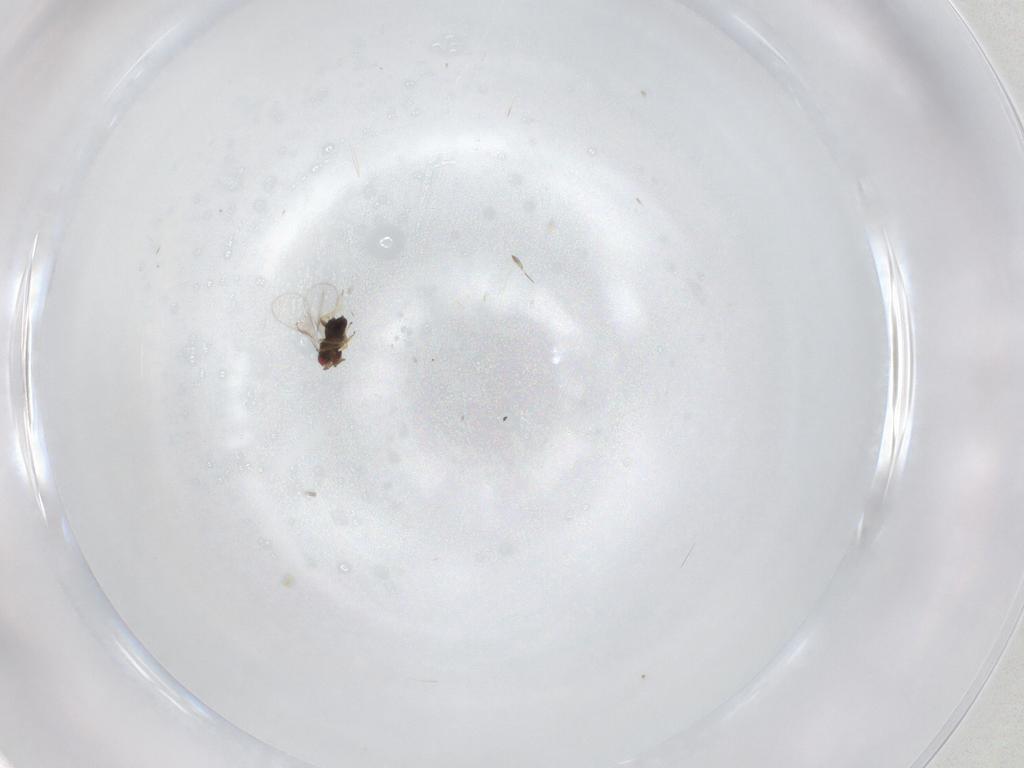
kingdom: Animalia
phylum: Arthropoda
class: Insecta
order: Hymenoptera
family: Trichogrammatidae
